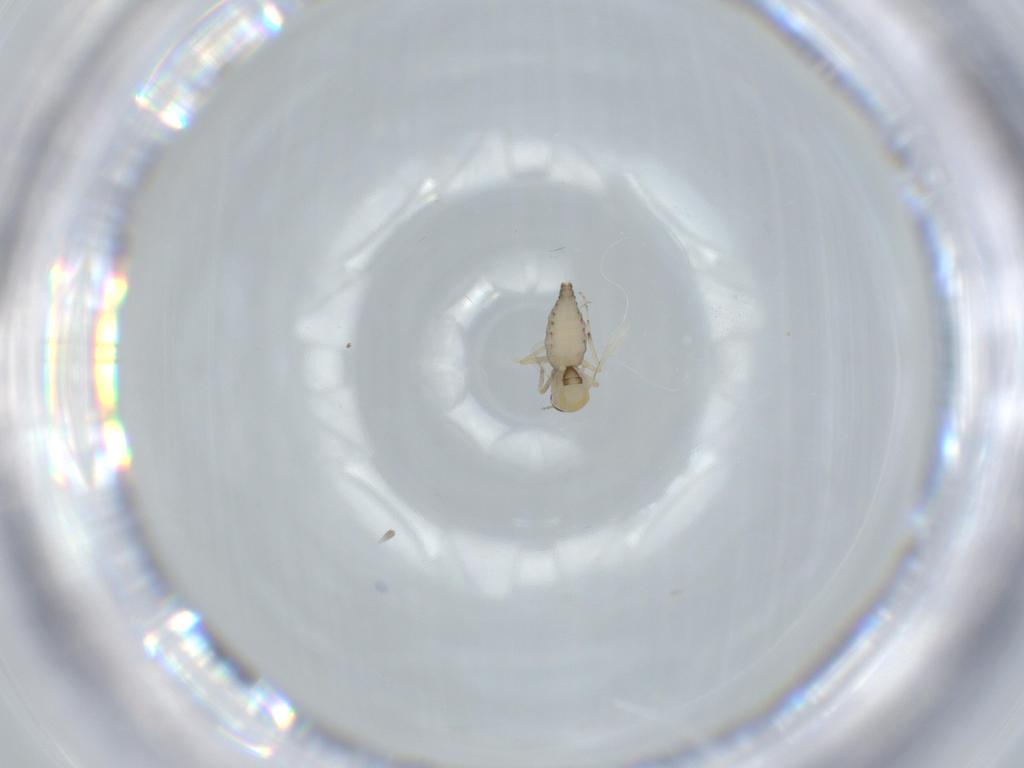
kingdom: Animalia
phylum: Arthropoda
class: Insecta
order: Diptera
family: Ceratopogonidae
